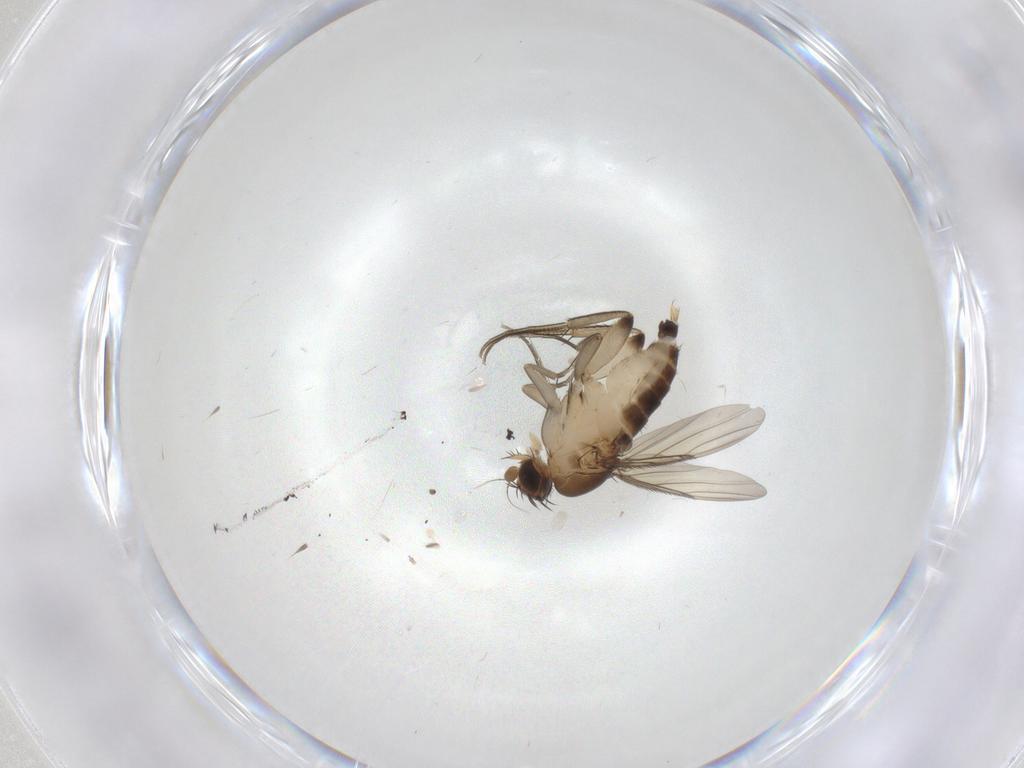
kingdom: Animalia
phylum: Arthropoda
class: Insecta
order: Diptera
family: Phoridae
